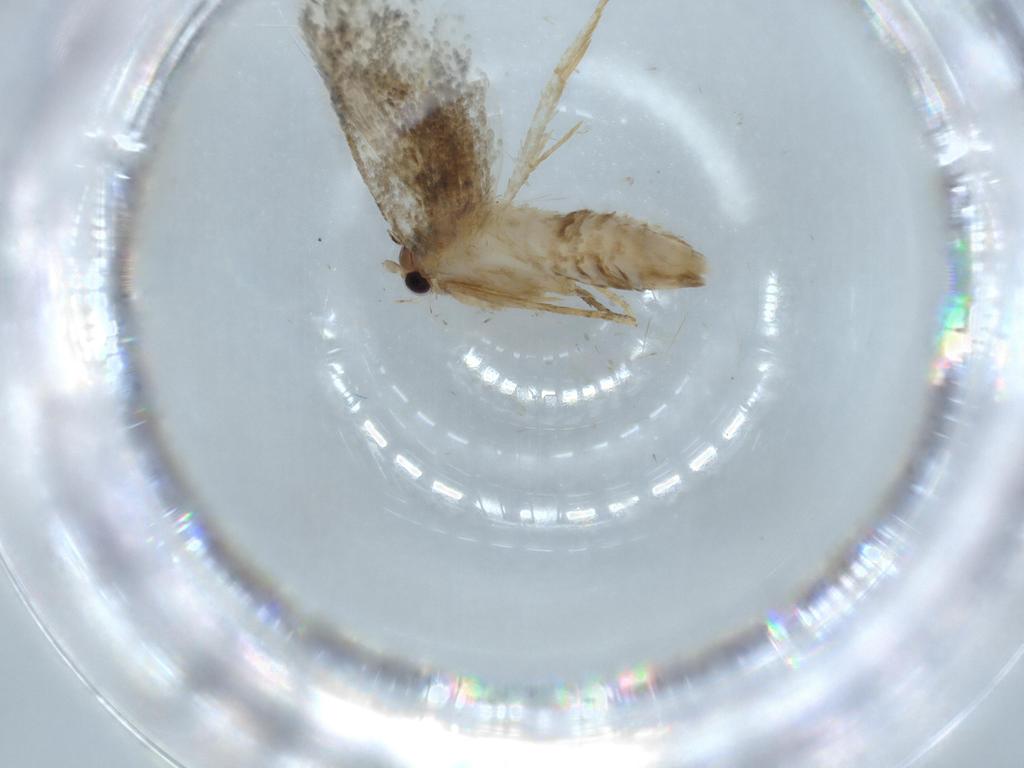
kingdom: Animalia
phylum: Arthropoda
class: Insecta
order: Lepidoptera
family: Tineidae
